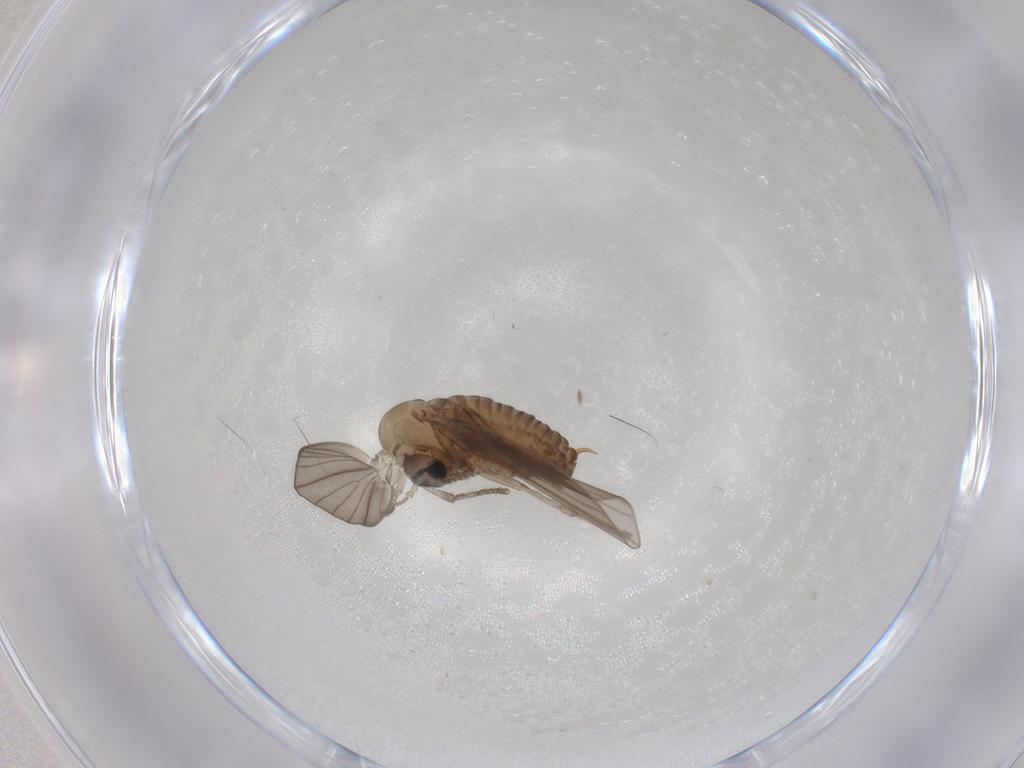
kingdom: Animalia
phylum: Arthropoda
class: Insecta
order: Diptera
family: Psychodidae
